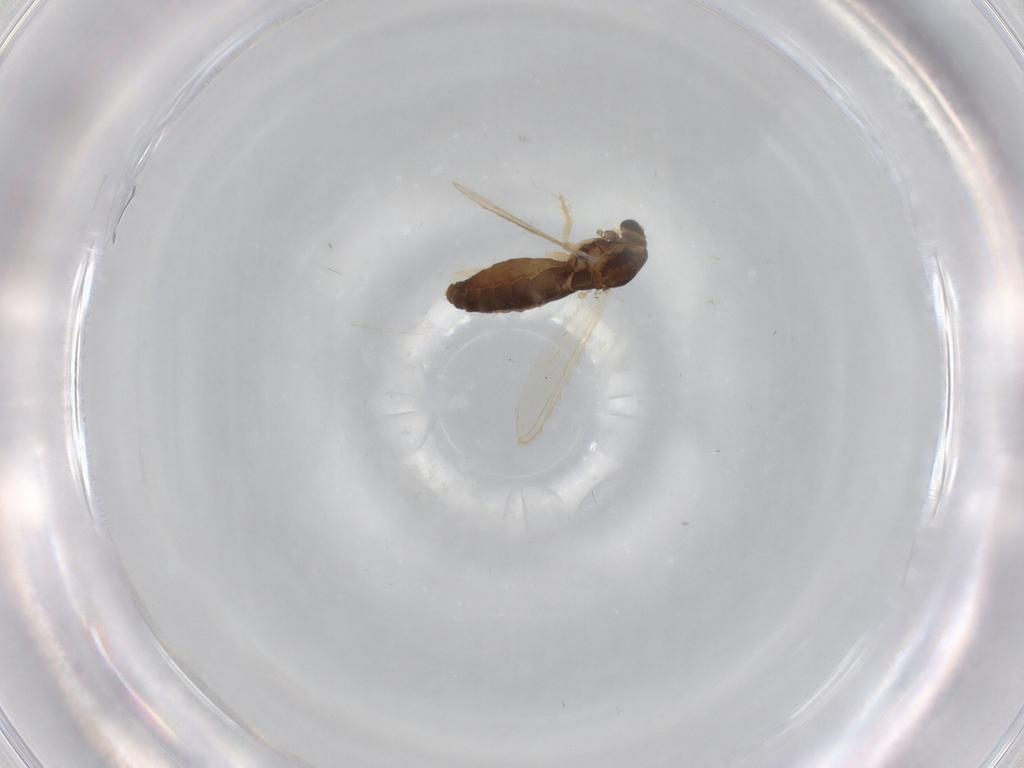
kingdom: Animalia
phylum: Arthropoda
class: Insecta
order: Diptera
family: Chironomidae
